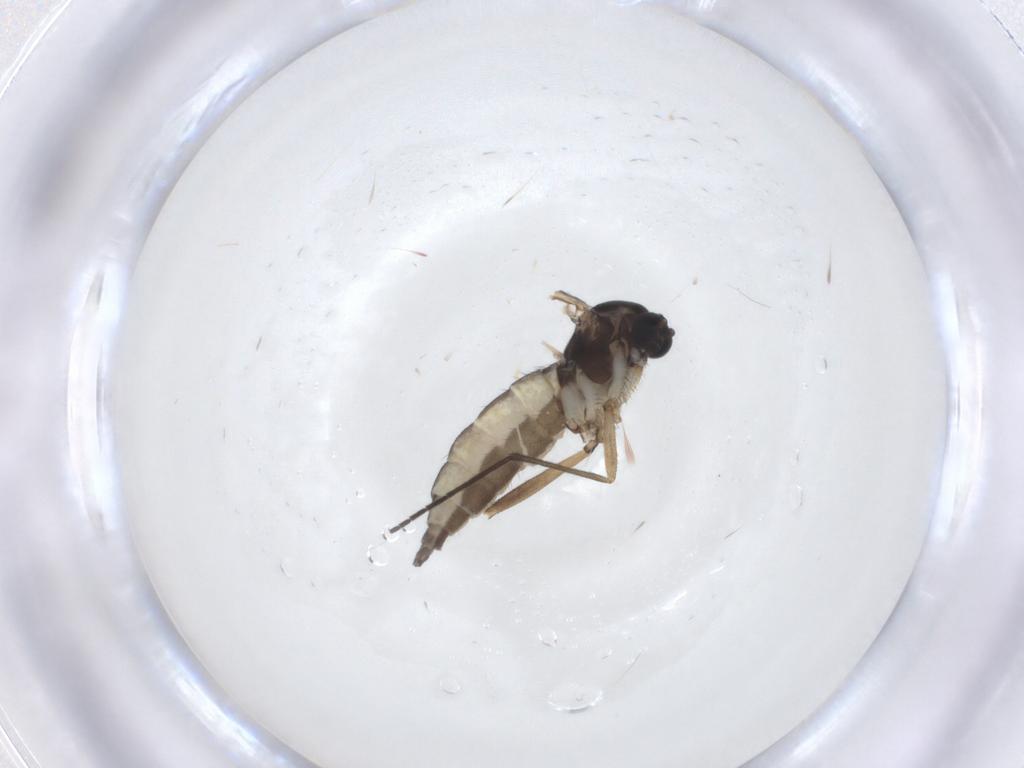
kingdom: Animalia
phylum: Arthropoda
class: Insecta
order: Diptera
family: Sciaridae
